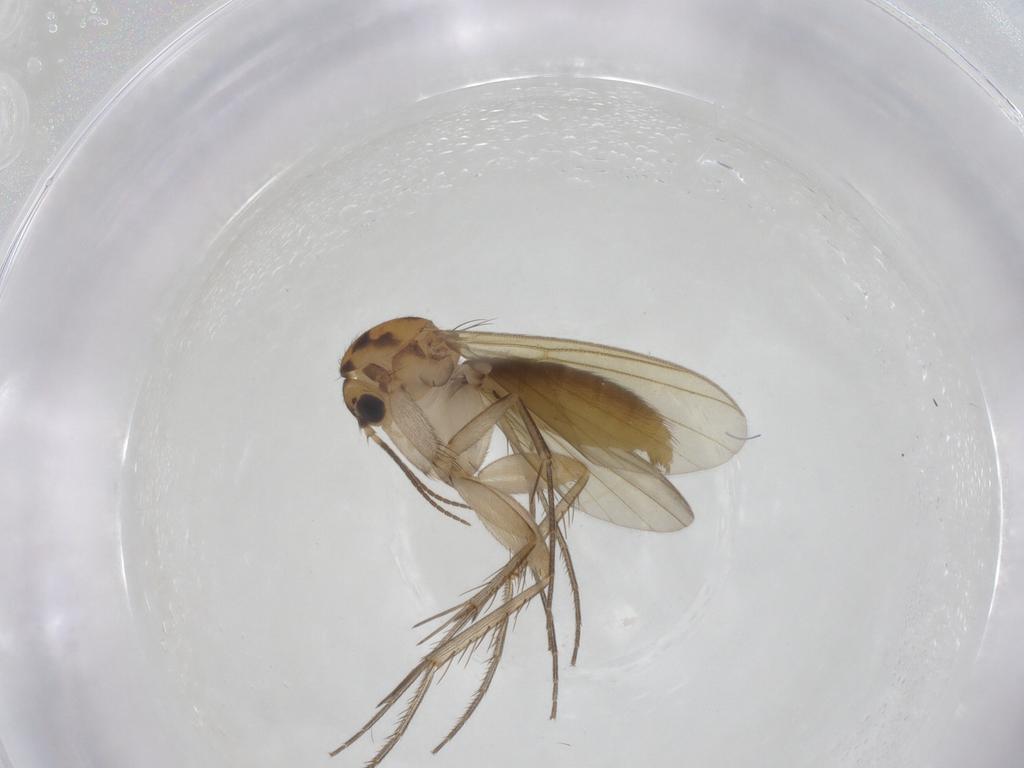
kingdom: Animalia
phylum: Arthropoda
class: Insecta
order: Diptera
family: Mycetophilidae
